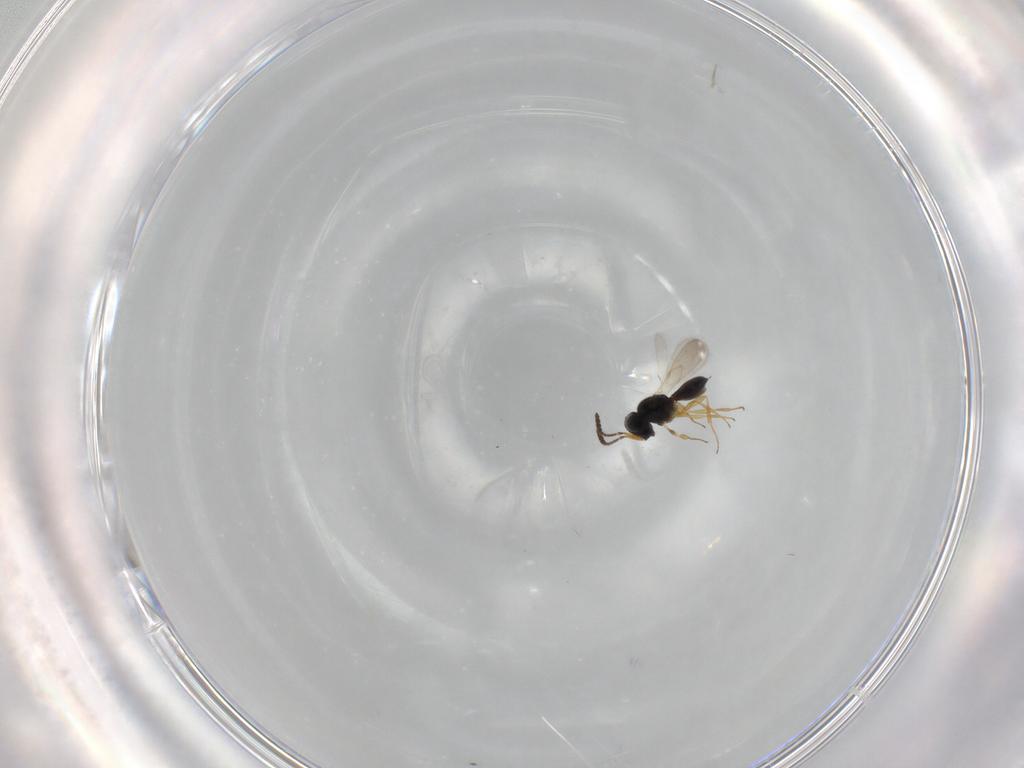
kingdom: Animalia
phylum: Arthropoda
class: Insecta
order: Hymenoptera
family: Scelionidae
